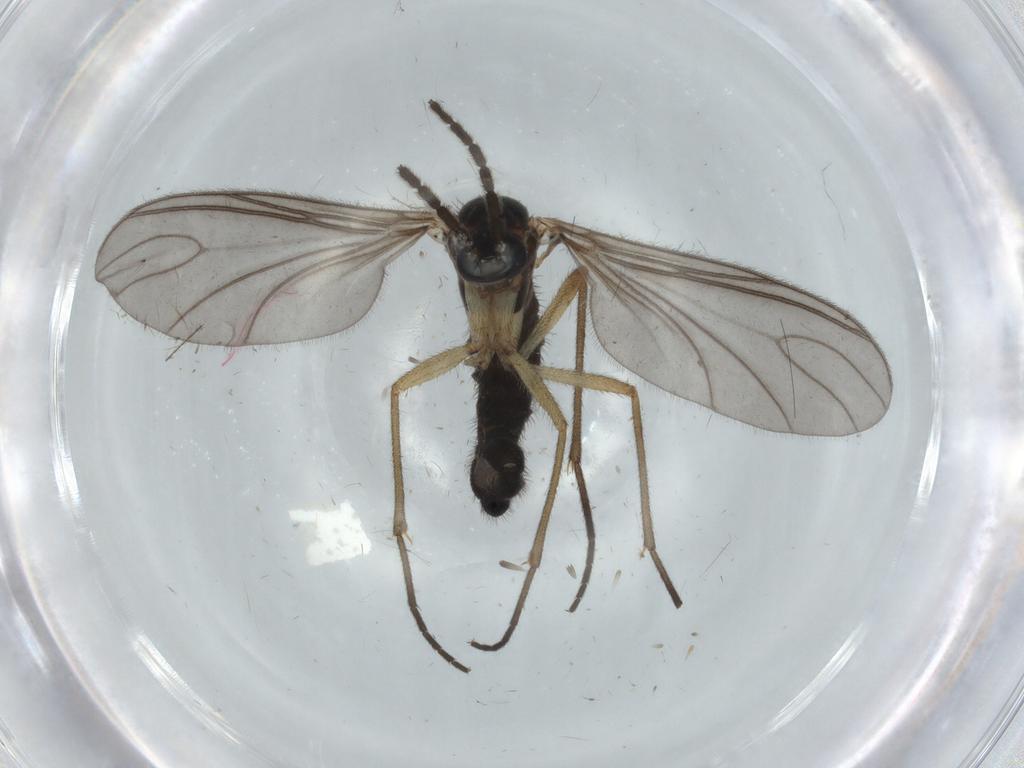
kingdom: Animalia
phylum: Arthropoda
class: Insecta
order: Diptera
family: Sciaridae
